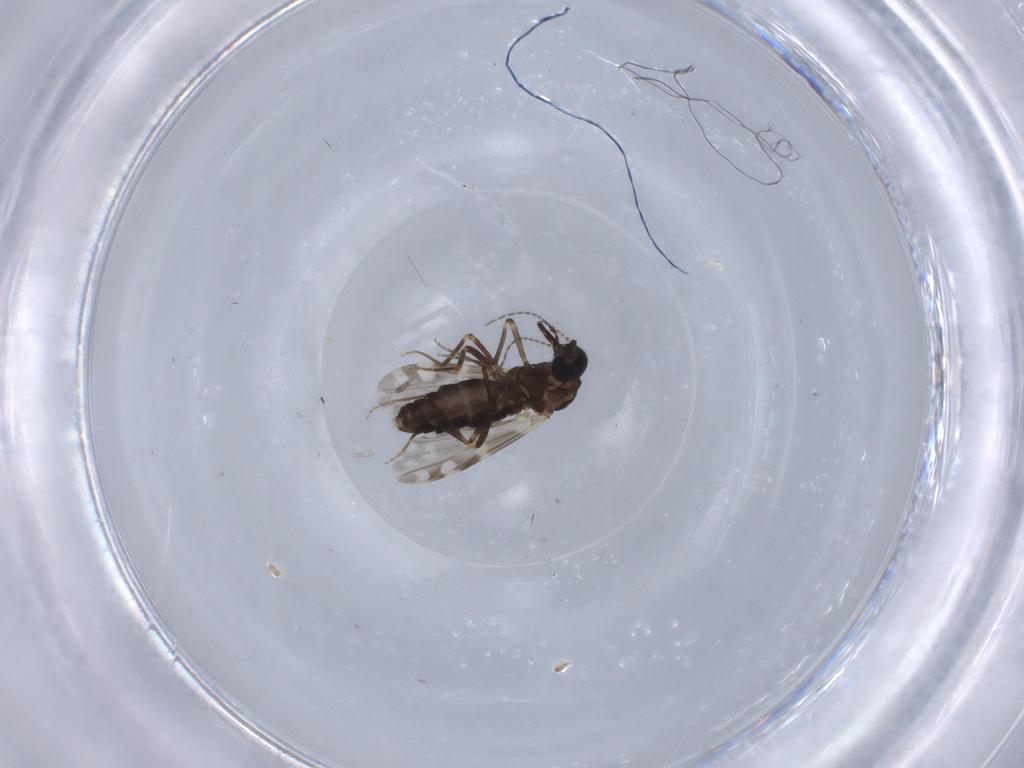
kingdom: Animalia
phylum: Arthropoda
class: Insecta
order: Diptera
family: Ceratopogonidae
